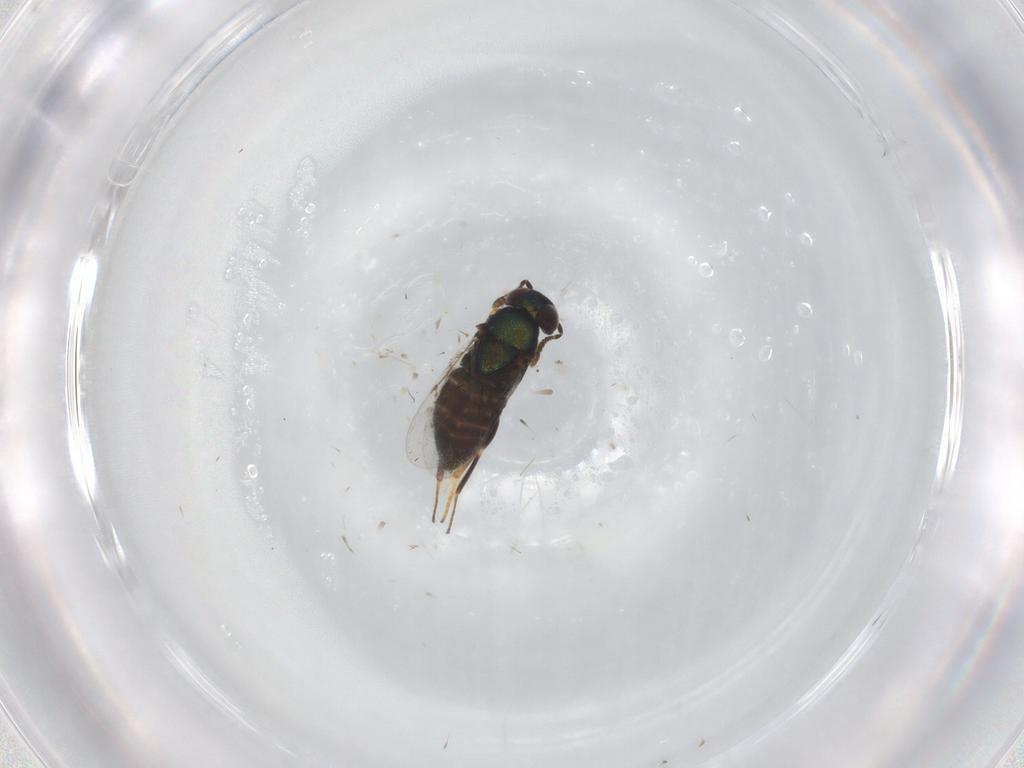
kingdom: Animalia
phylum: Arthropoda
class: Insecta
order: Hymenoptera
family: Encyrtidae
